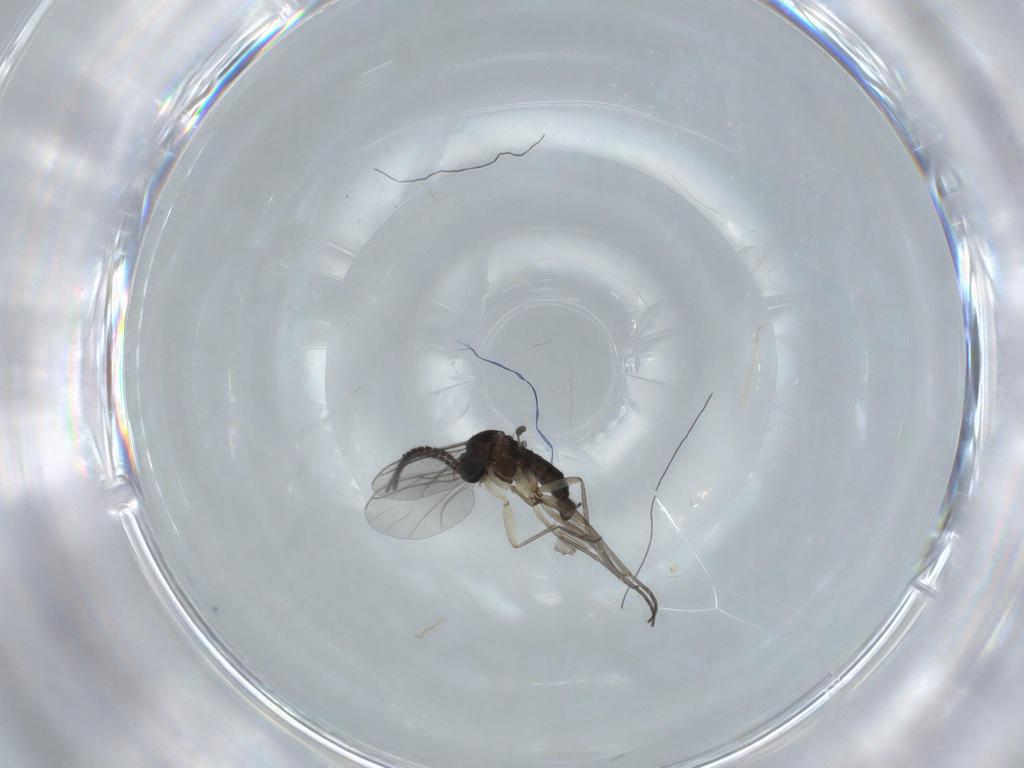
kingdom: Animalia
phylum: Arthropoda
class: Insecta
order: Diptera
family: Sciaridae
